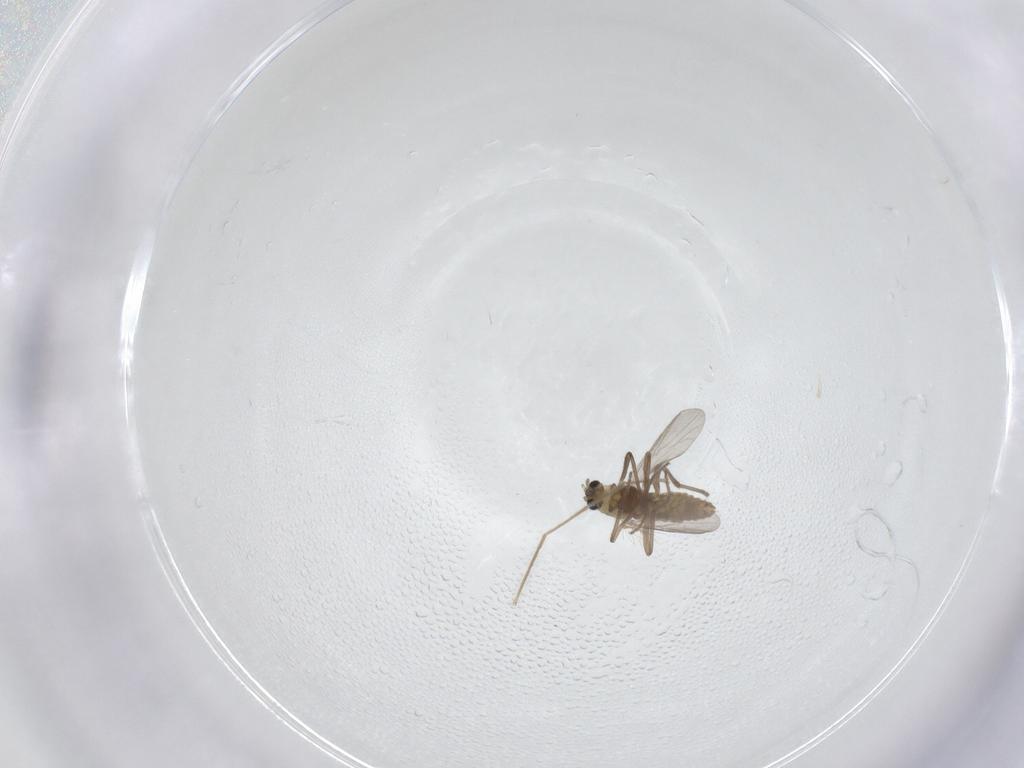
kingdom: Animalia
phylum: Arthropoda
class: Insecta
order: Diptera
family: Chironomidae
